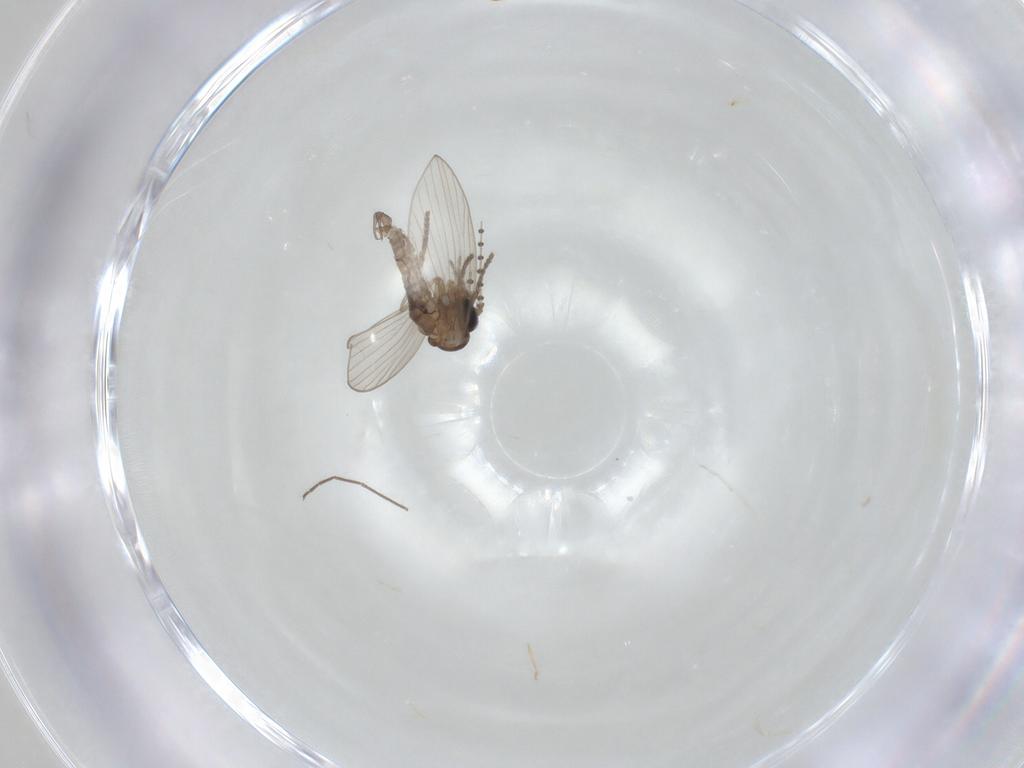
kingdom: Animalia
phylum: Arthropoda
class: Insecta
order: Diptera
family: Psychodidae
